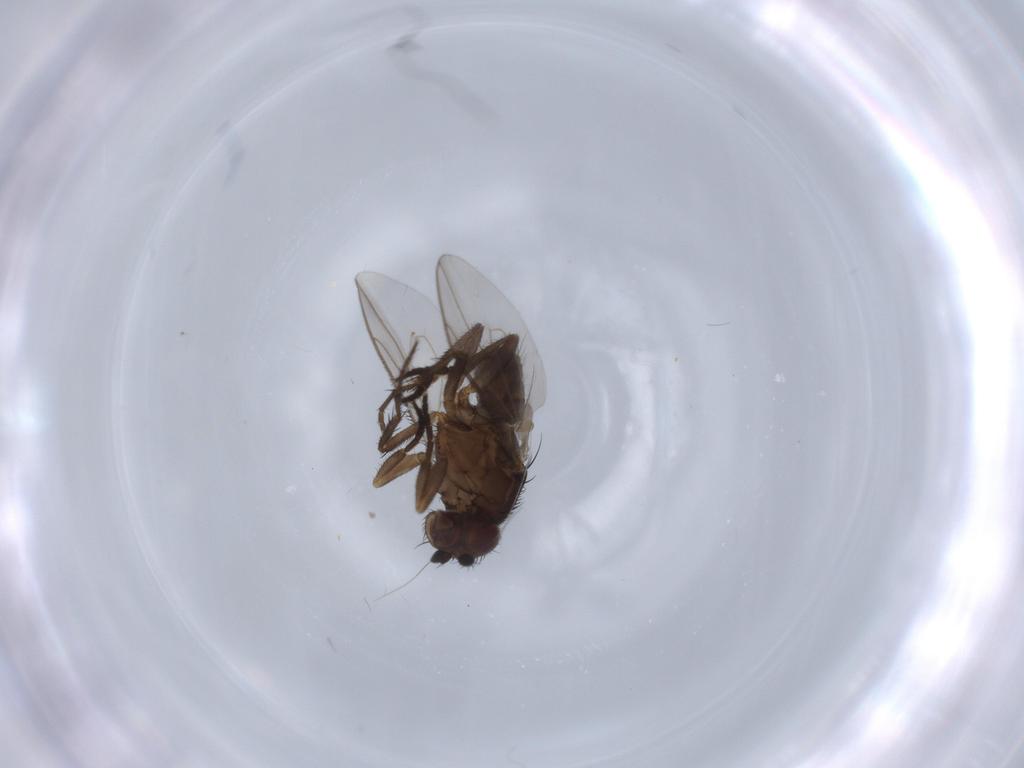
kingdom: Animalia
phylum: Arthropoda
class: Insecta
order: Diptera
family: Sphaeroceridae
